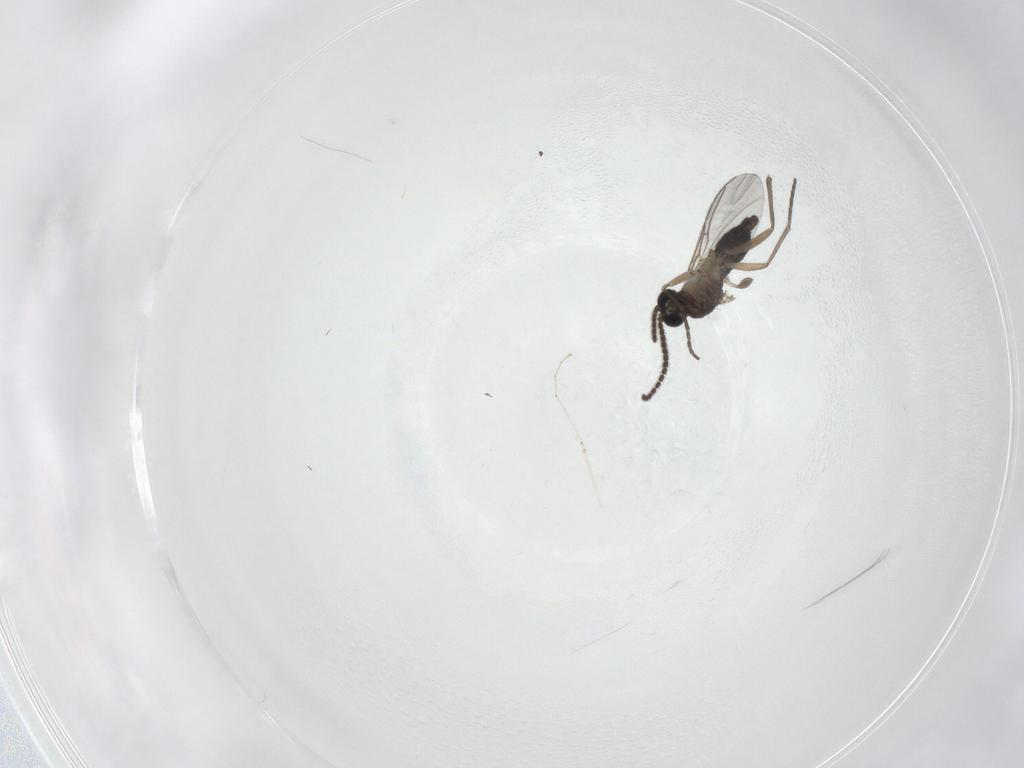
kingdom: Animalia
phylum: Arthropoda
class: Insecta
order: Diptera
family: Sciaridae
